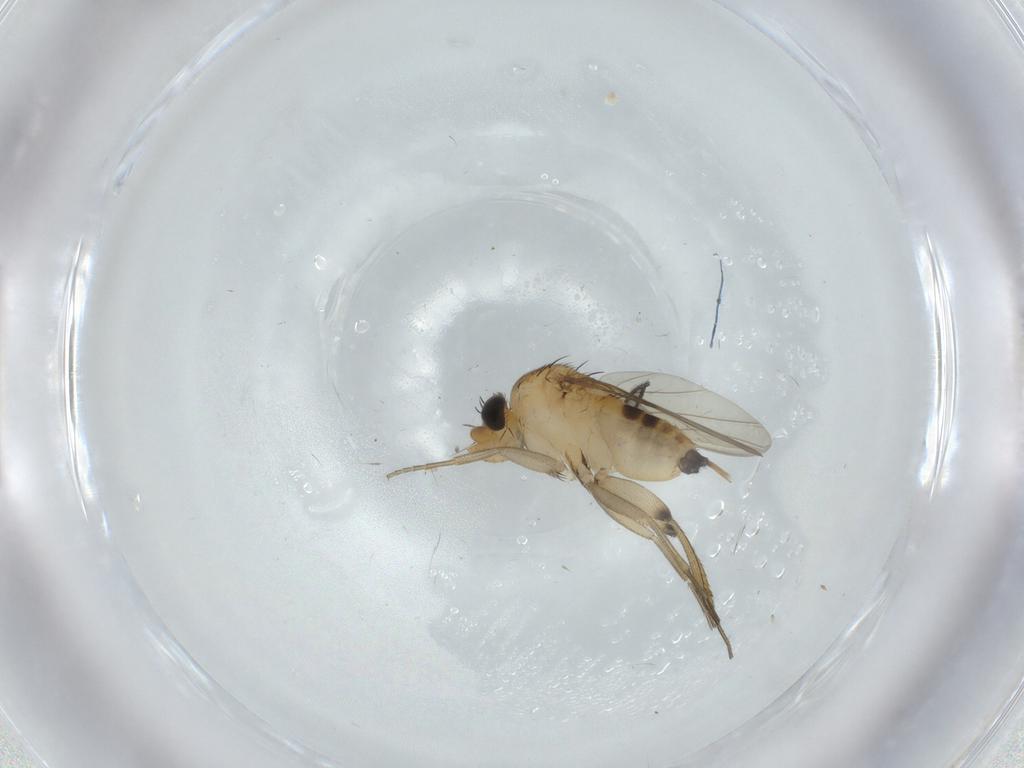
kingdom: Animalia
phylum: Arthropoda
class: Insecta
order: Diptera
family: Phoridae
